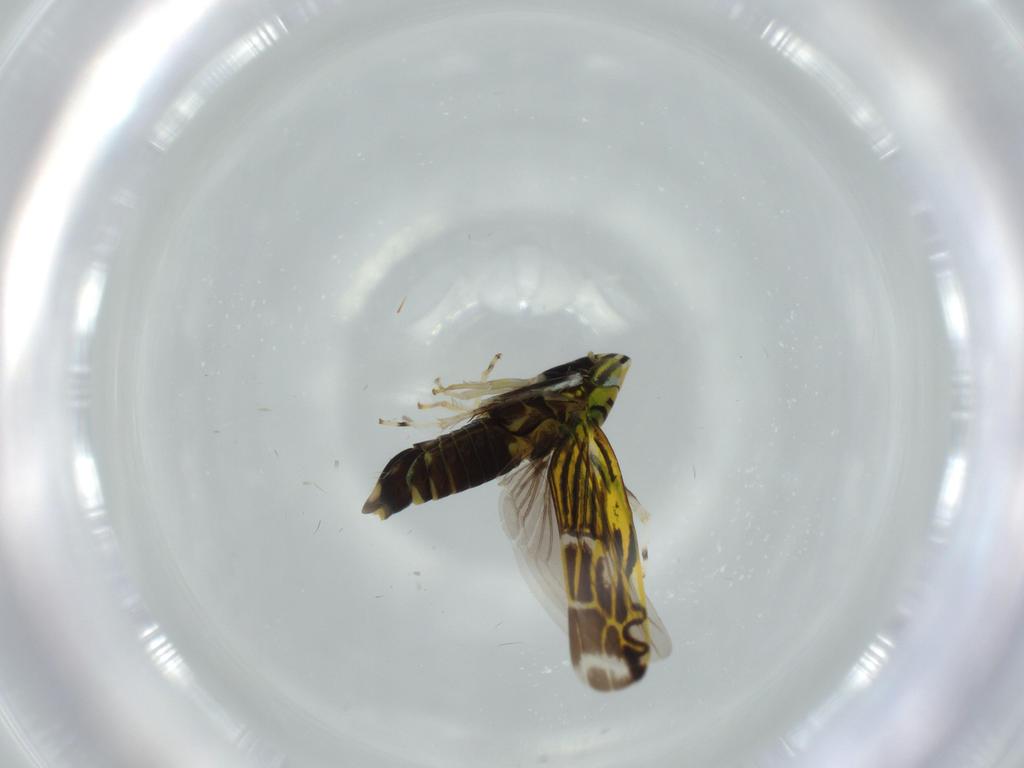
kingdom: Animalia
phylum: Arthropoda
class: Insecta
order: Hemiptera
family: Cicadellidae
